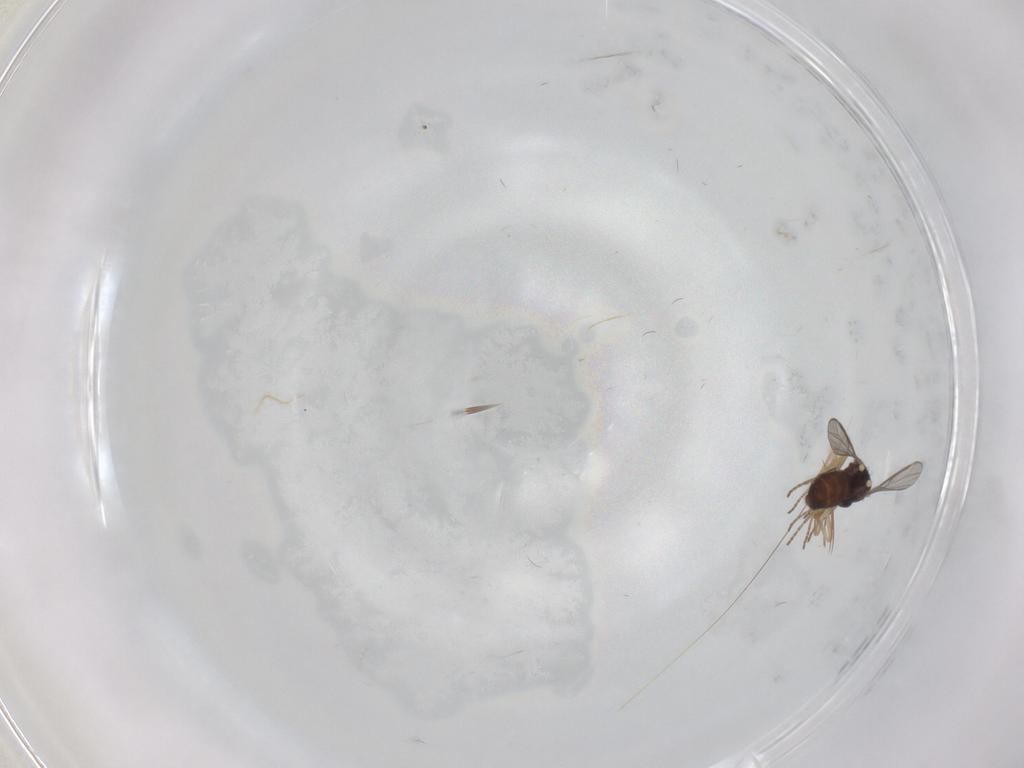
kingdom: Animalia
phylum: Arthropoda
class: Insecta
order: Diptera
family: Ceratopogonidae
